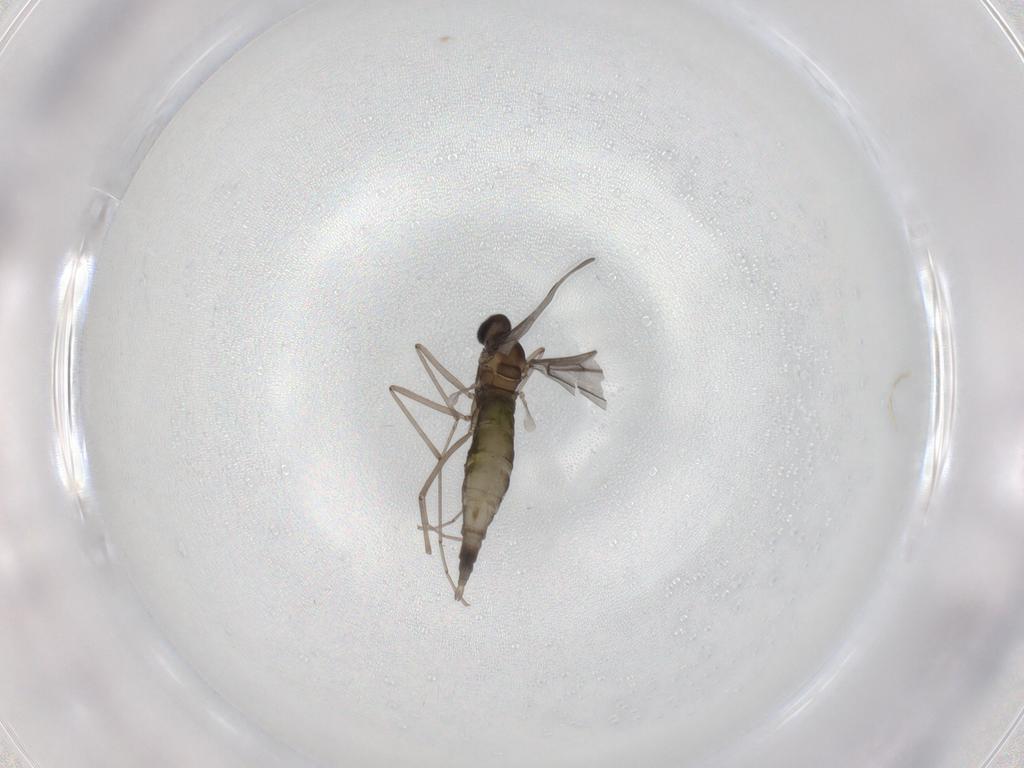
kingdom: Animalia
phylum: Arthropoda
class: Insecta
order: Diptera
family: Cecidomyiidae
